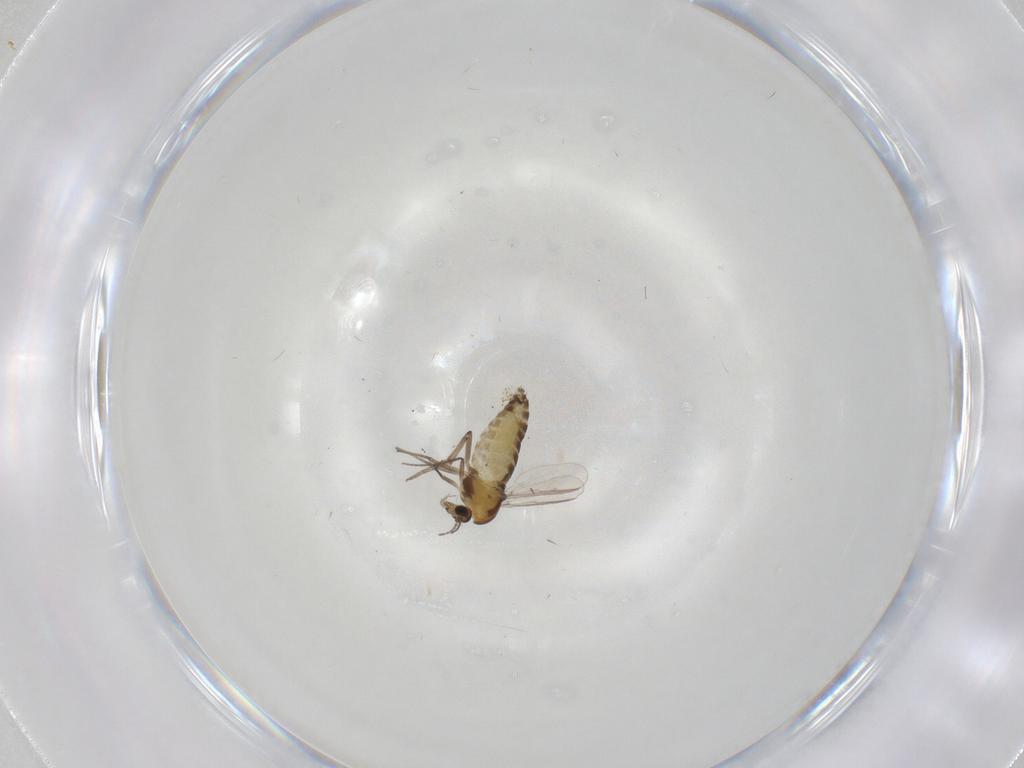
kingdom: Animalia
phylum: Arthropoda
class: Insecta
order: Diptera
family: Chironomidae
